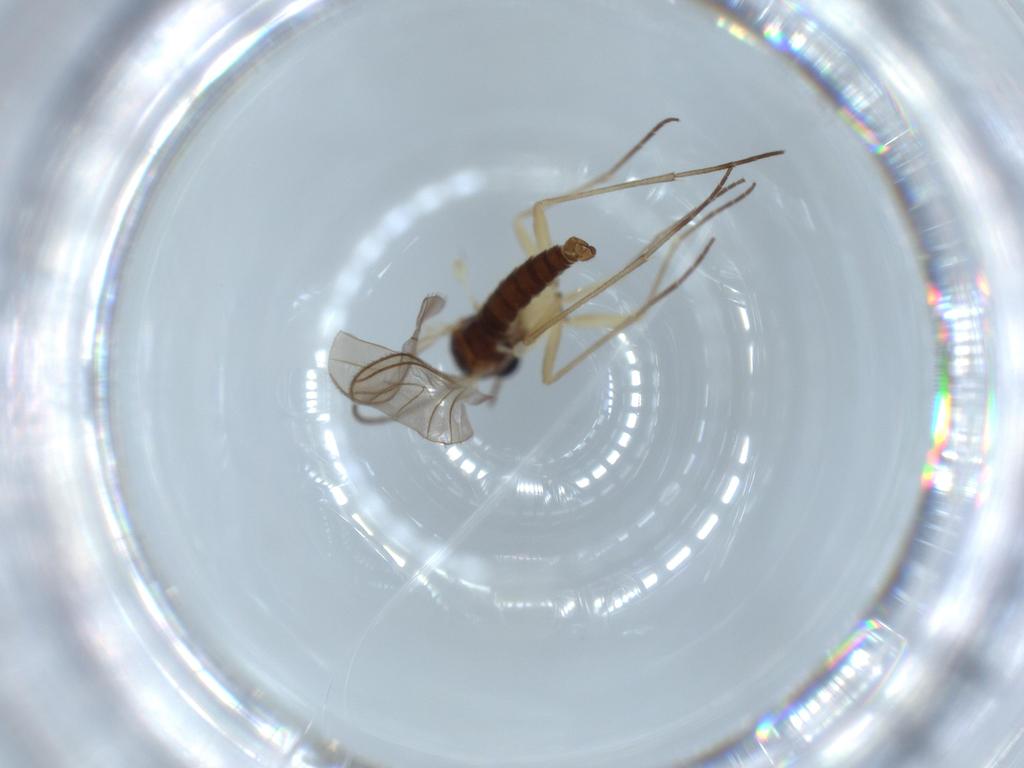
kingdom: Animalia
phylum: Arthropoda
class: Insecta
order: Diptera
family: Sciaridae
